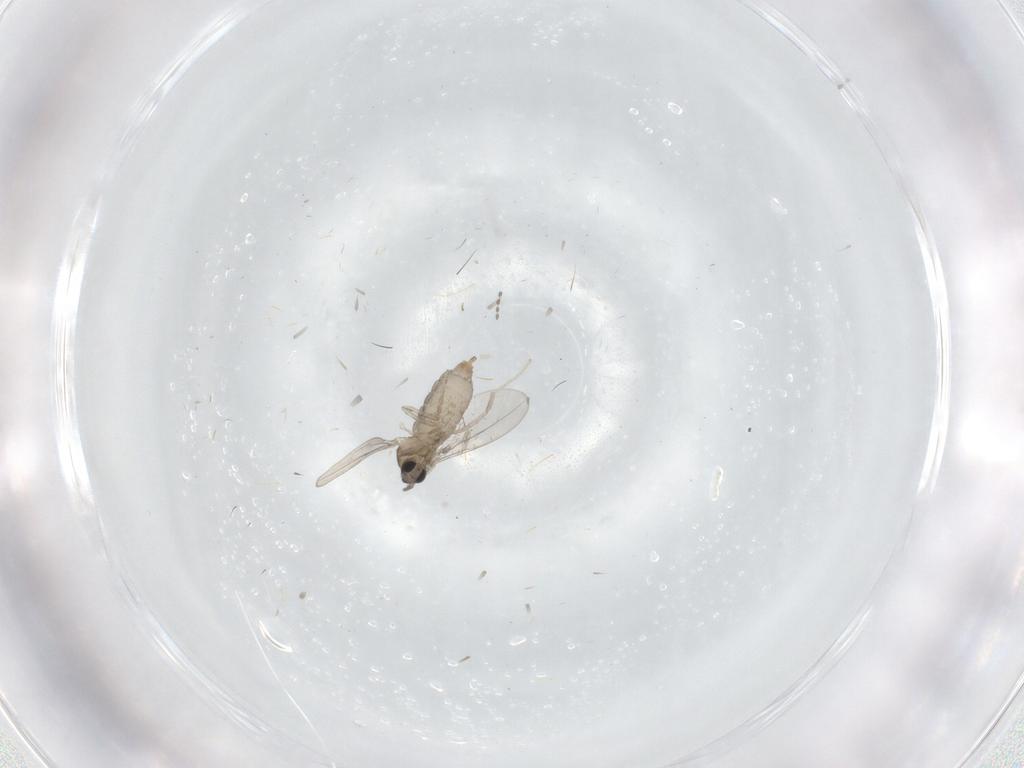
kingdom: Animalia
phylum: Arthropoda
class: Insecta
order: Diptera
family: Cecidomyiidae
